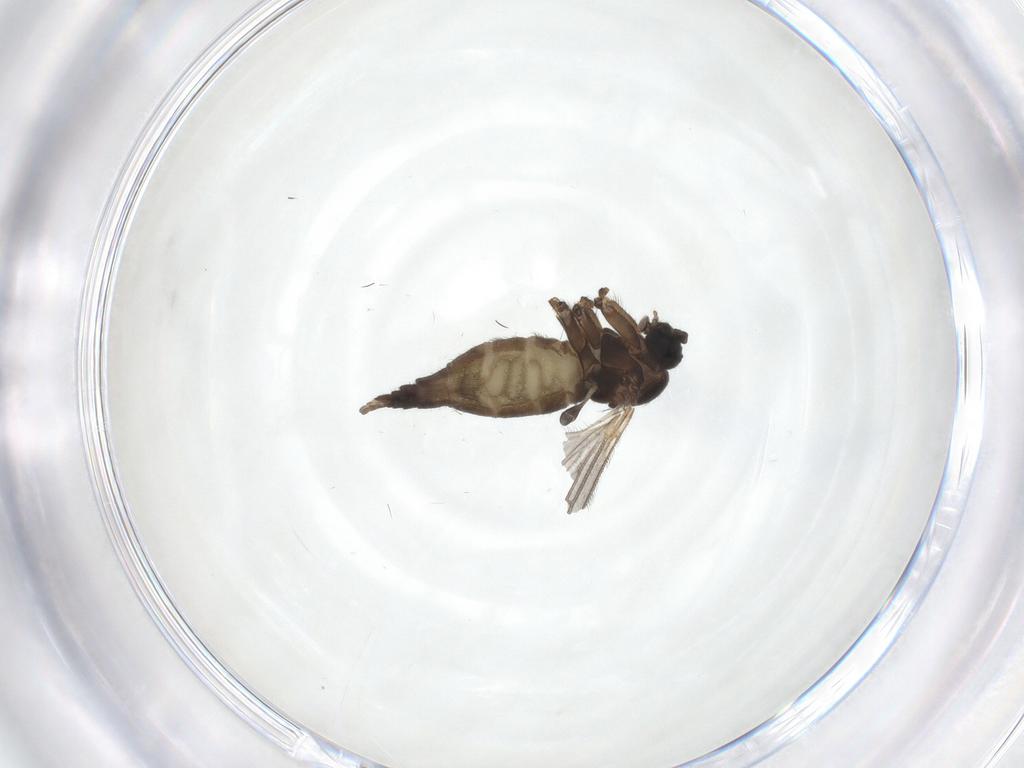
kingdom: Animalia
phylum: Arthropoda
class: Insecta
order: Diptera
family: Sciaridae
